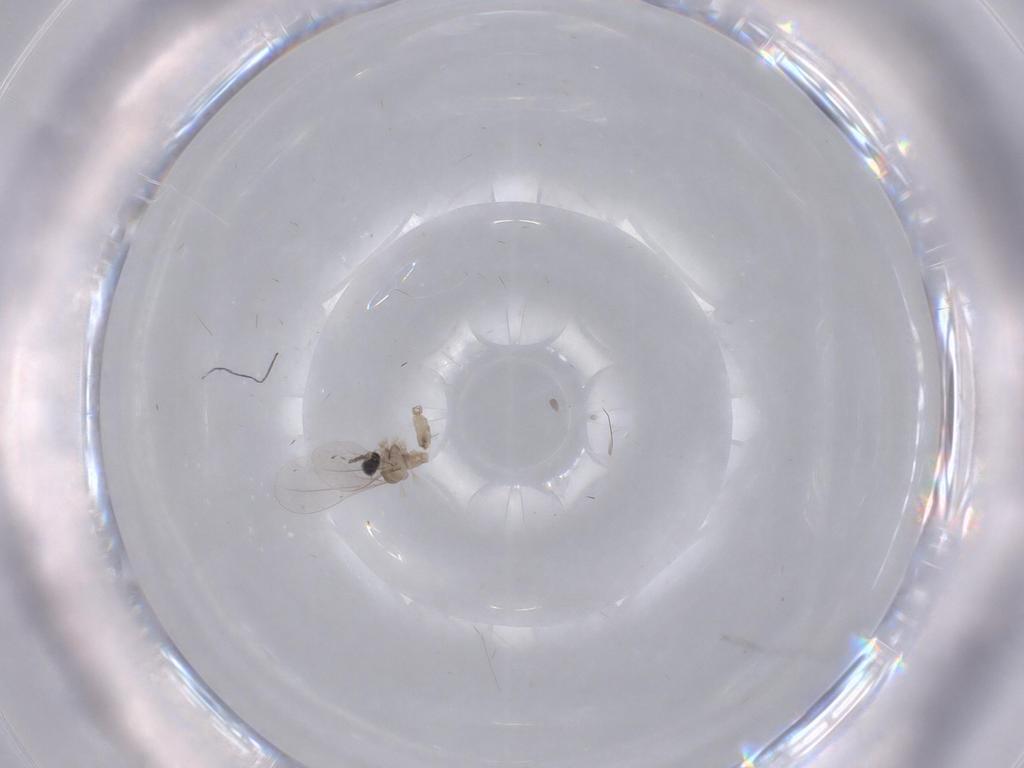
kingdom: Animalia
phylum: Arthropoda
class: Insecta
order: Diptera
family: Cecidomyiidae
